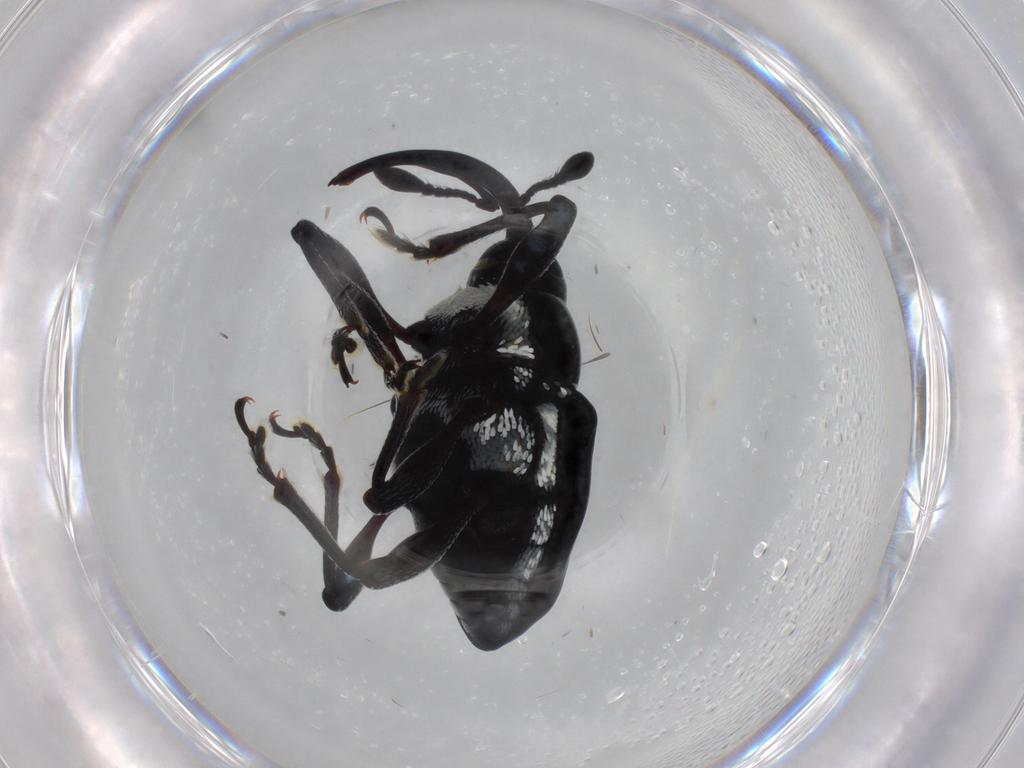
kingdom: Animalia
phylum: Arthropoda
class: Insecta
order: Coleoptera
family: Curculionidae
